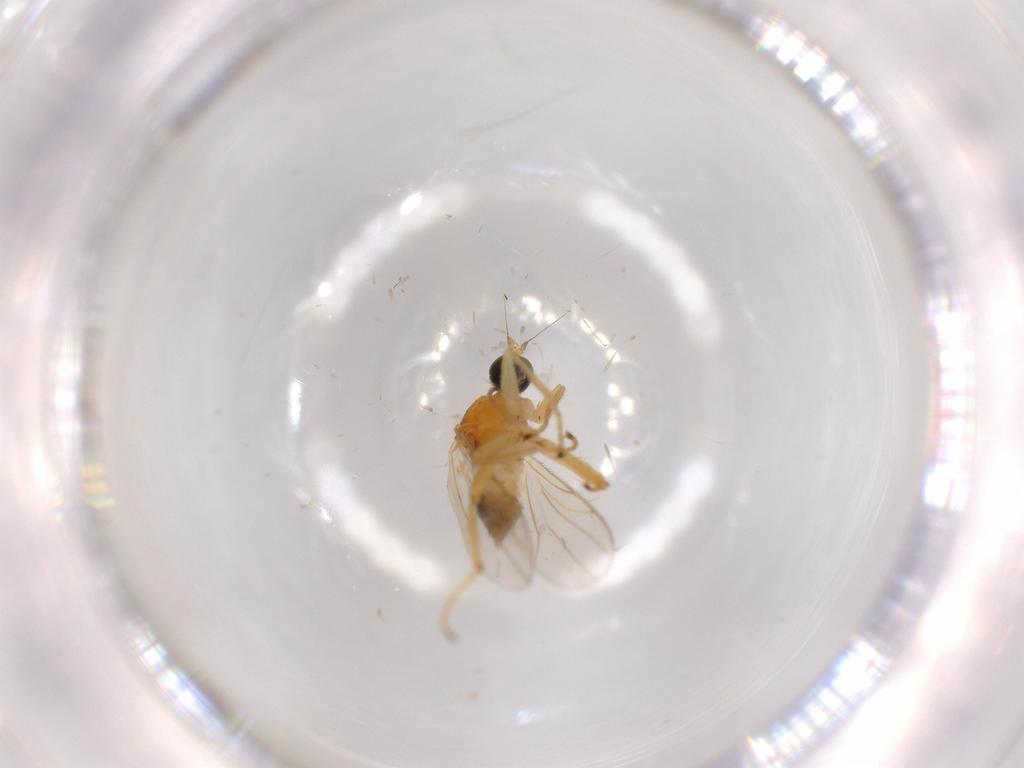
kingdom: Animalia
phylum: Arthropoda
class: Insecta
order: Diptera
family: Hybotidae
